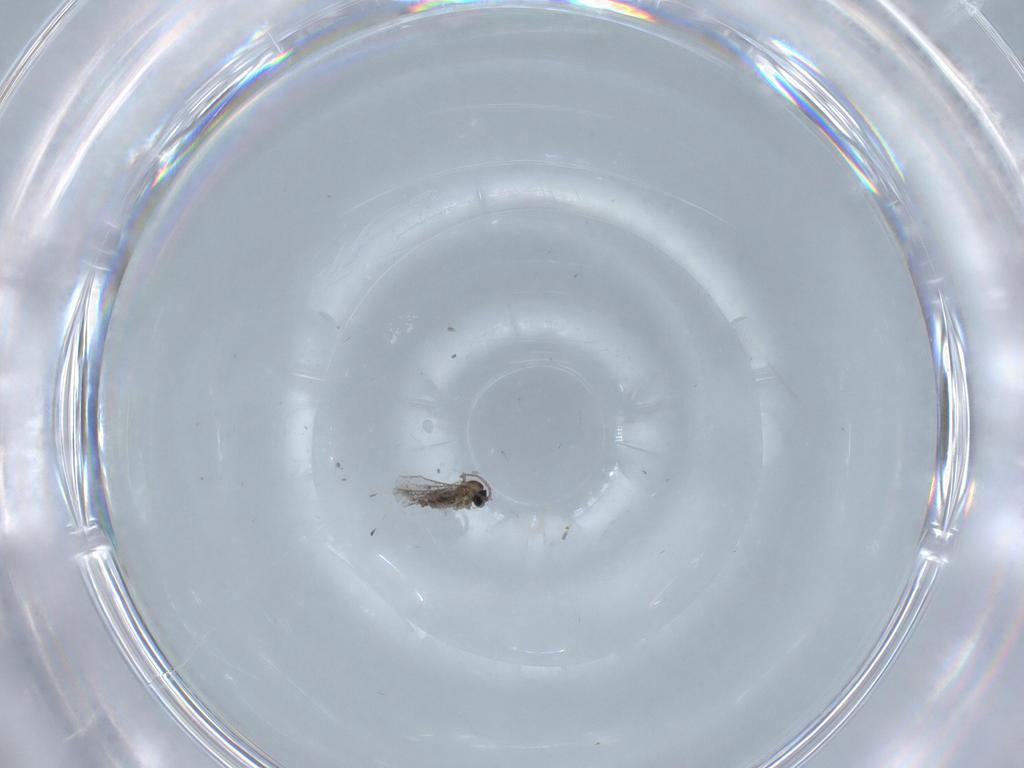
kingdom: Animalia
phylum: Arthropoda
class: Insecta
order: Diptera
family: Cecidomyiidae
